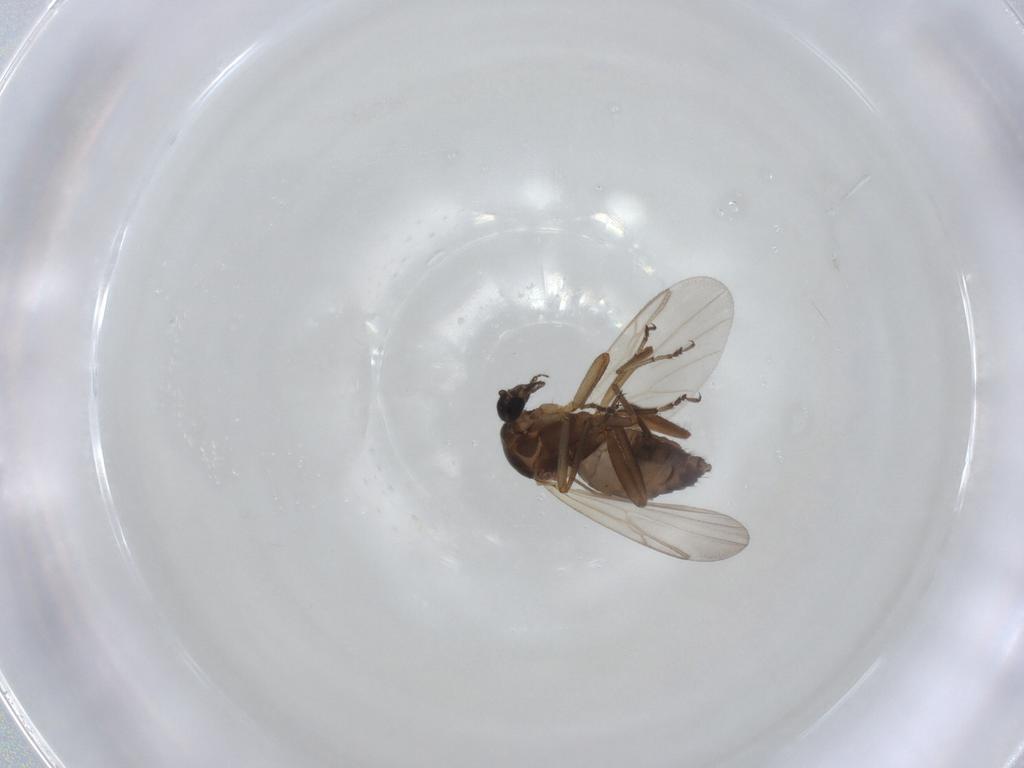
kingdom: Animalia
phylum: Arthropoda
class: Insecta
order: Diptera
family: Ceratopogonidae
